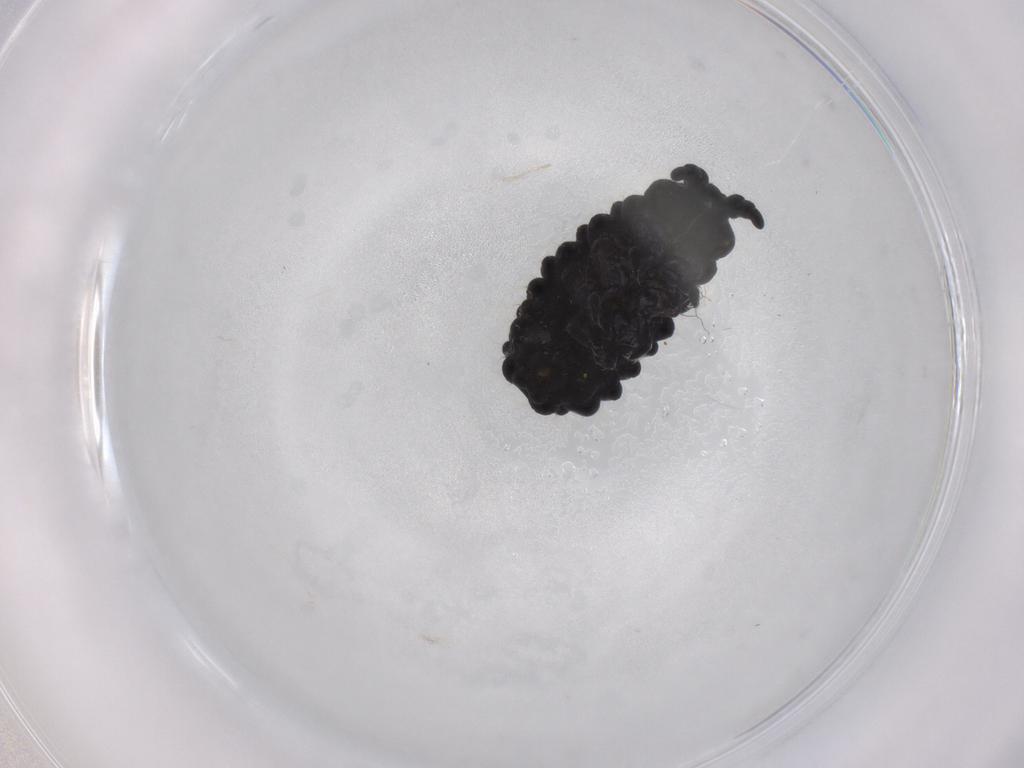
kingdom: Animalia
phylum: Arthropoda
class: Collembola
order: Poduromorpha
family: Neanuridae
